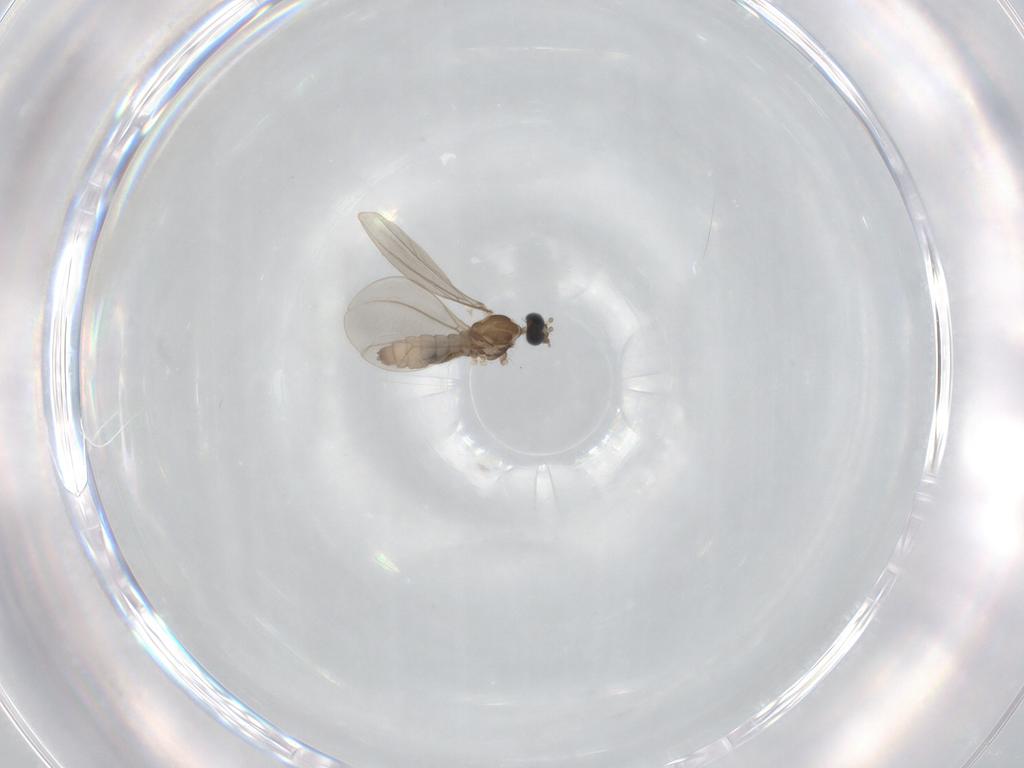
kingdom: Animalia
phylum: Arthropoda
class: Insecta
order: Diptera
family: Cecidomyiidae
